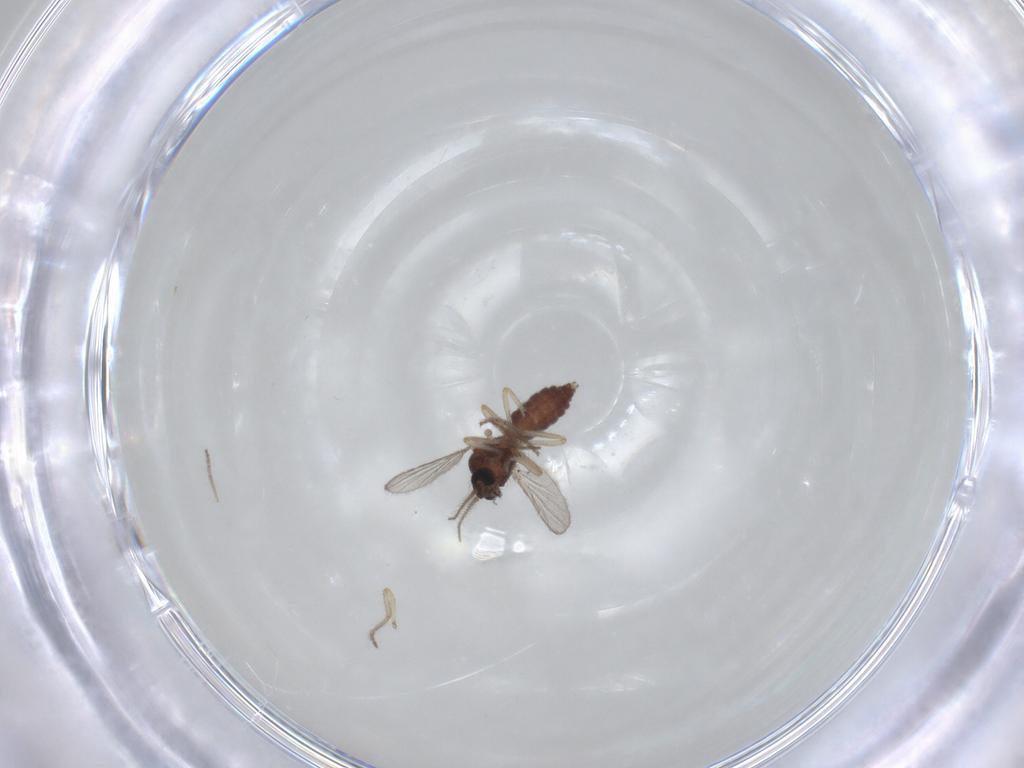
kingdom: Animalia
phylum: Arthropoda
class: Insecta
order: Diptera
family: Ceratopogonidae
